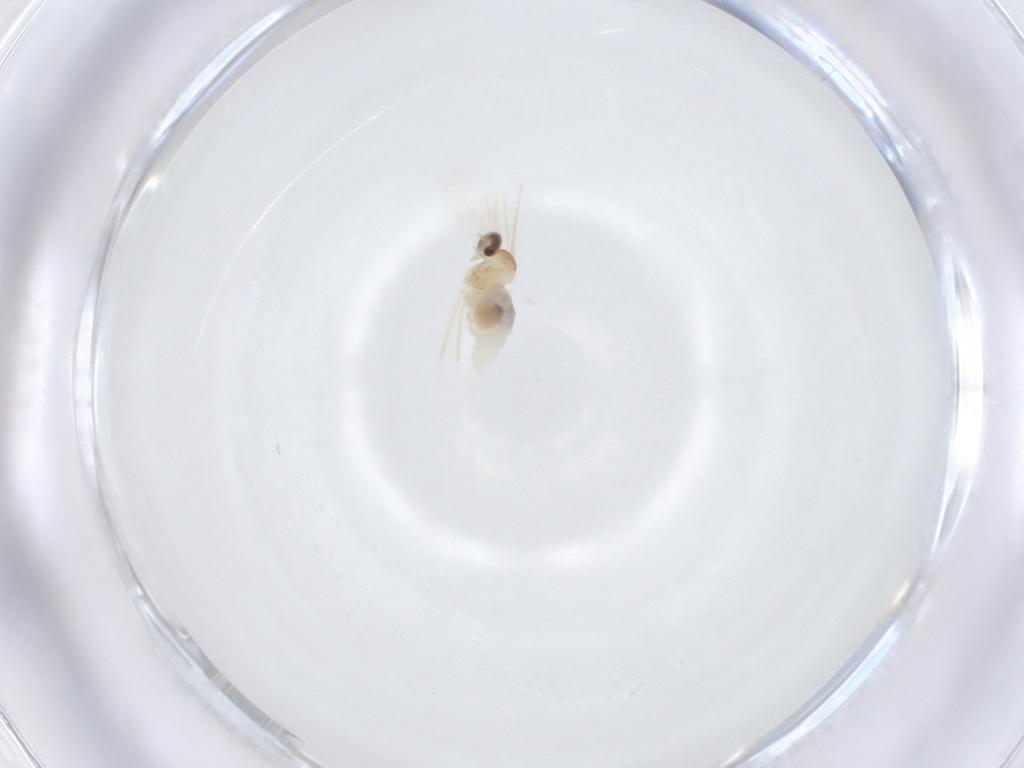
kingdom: Animalia
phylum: Arthropoda
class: Insecta
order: Diptera
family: Cecidomyiidae
